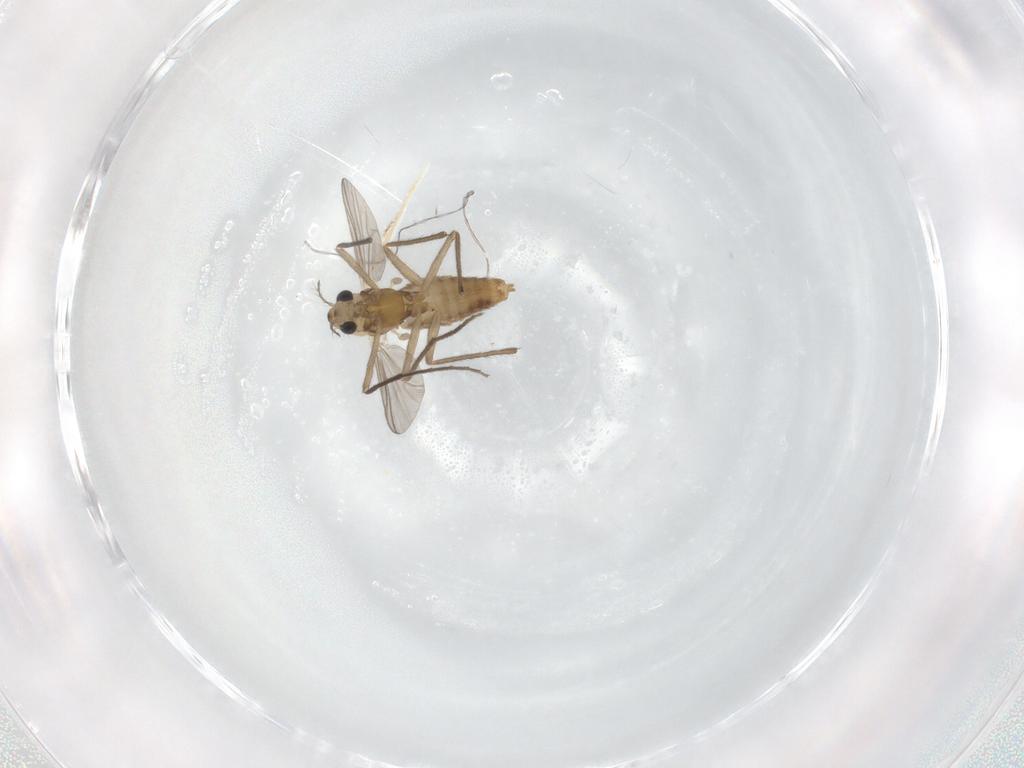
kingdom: Animalia
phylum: Arthropoda
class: Insecta
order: Diptera
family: Chironomidae
